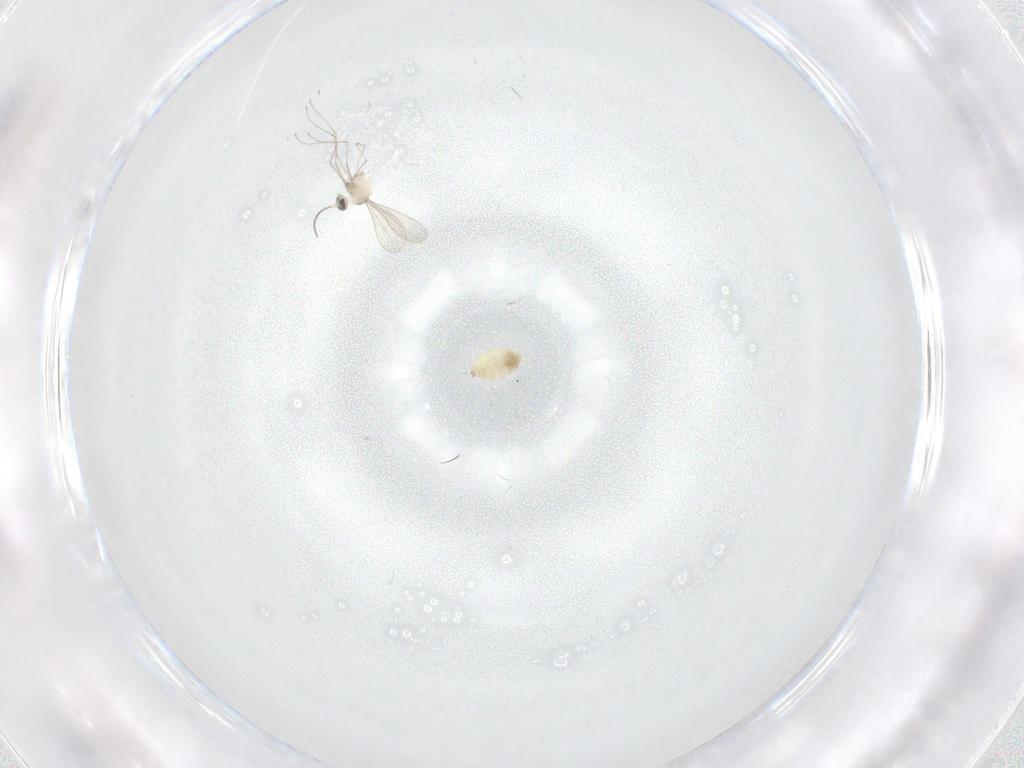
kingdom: Animalia
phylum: Arthropoda
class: Insecta
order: Diptera
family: Cecidomyiidae
